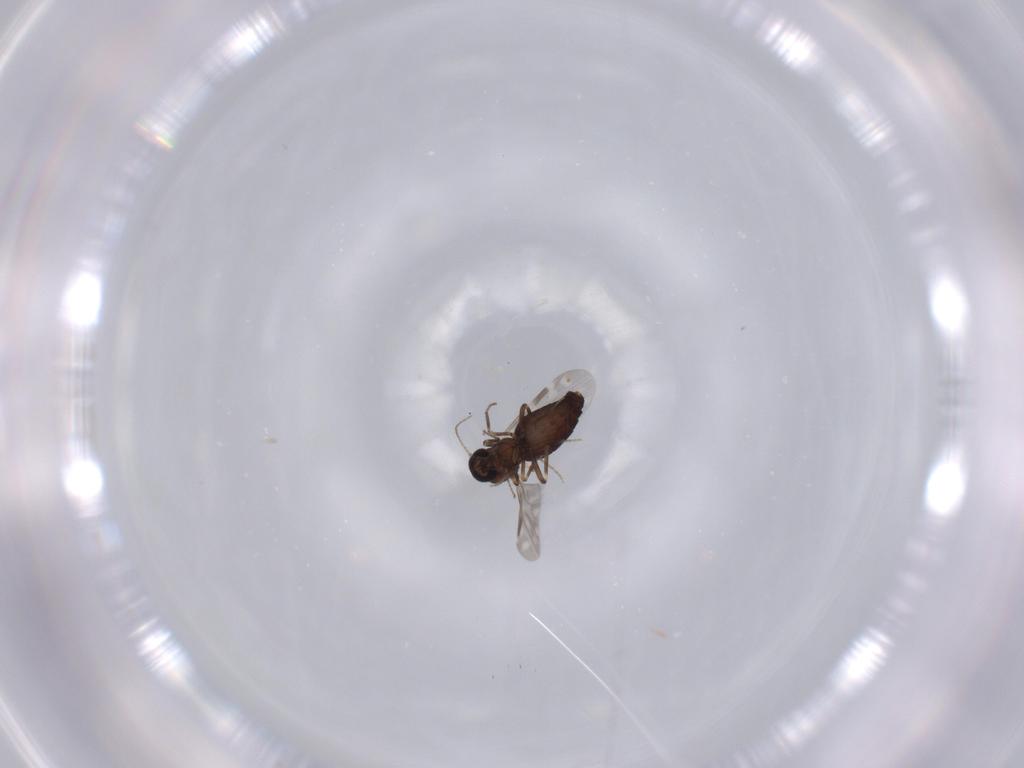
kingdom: Animalia
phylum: Arthropoda
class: Insecta
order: Diptera
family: Ceratopogonidae
